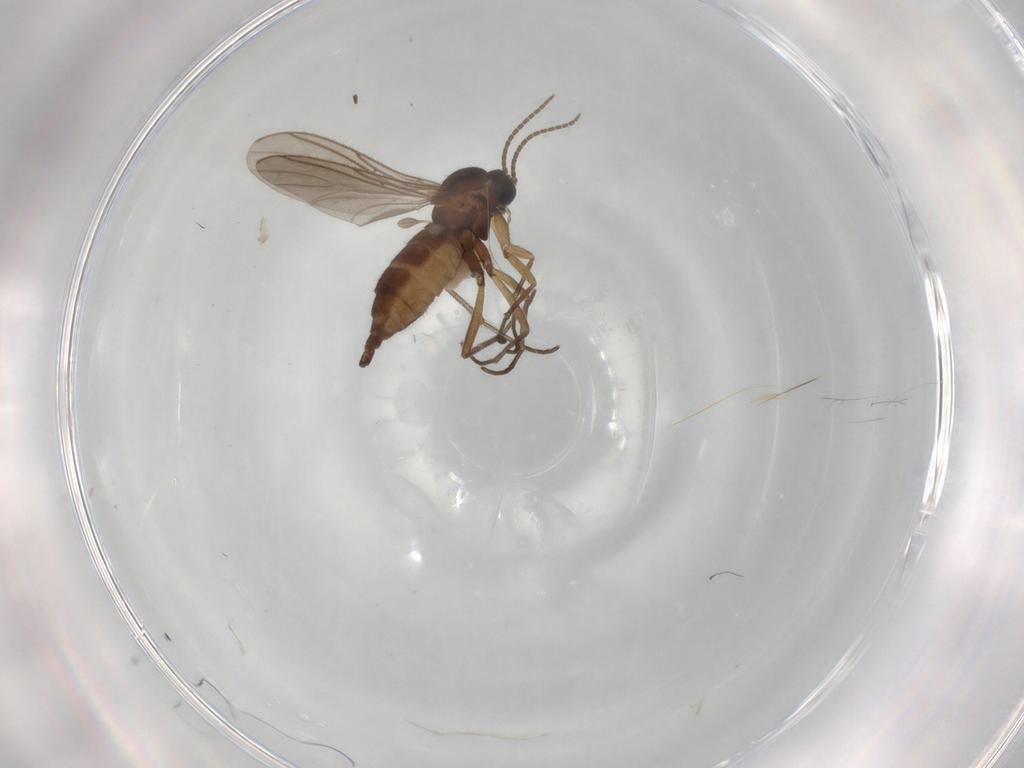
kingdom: Animalia
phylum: Arthropoda
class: Insecta
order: Diptera
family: Sciaridae
